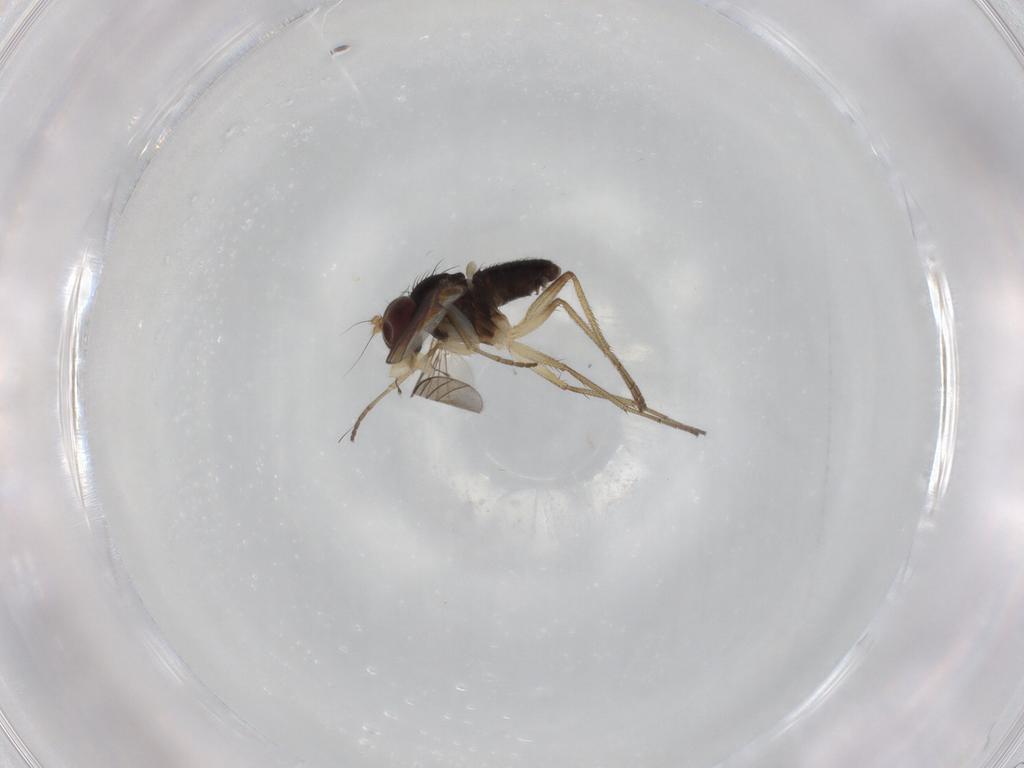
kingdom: Animalia
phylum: Arthropoda
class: Insecta
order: Diptera
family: Dolichopodidae
